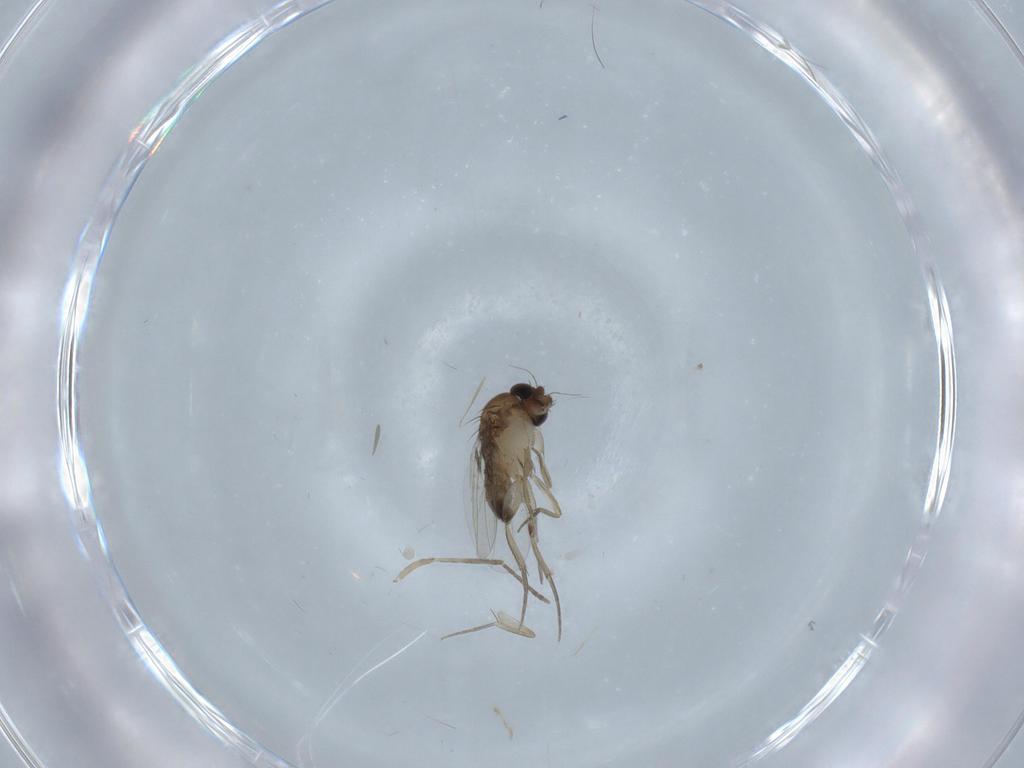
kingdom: Animalia
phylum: Arthropoda
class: Insecta
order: Diptera
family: Phoridae
